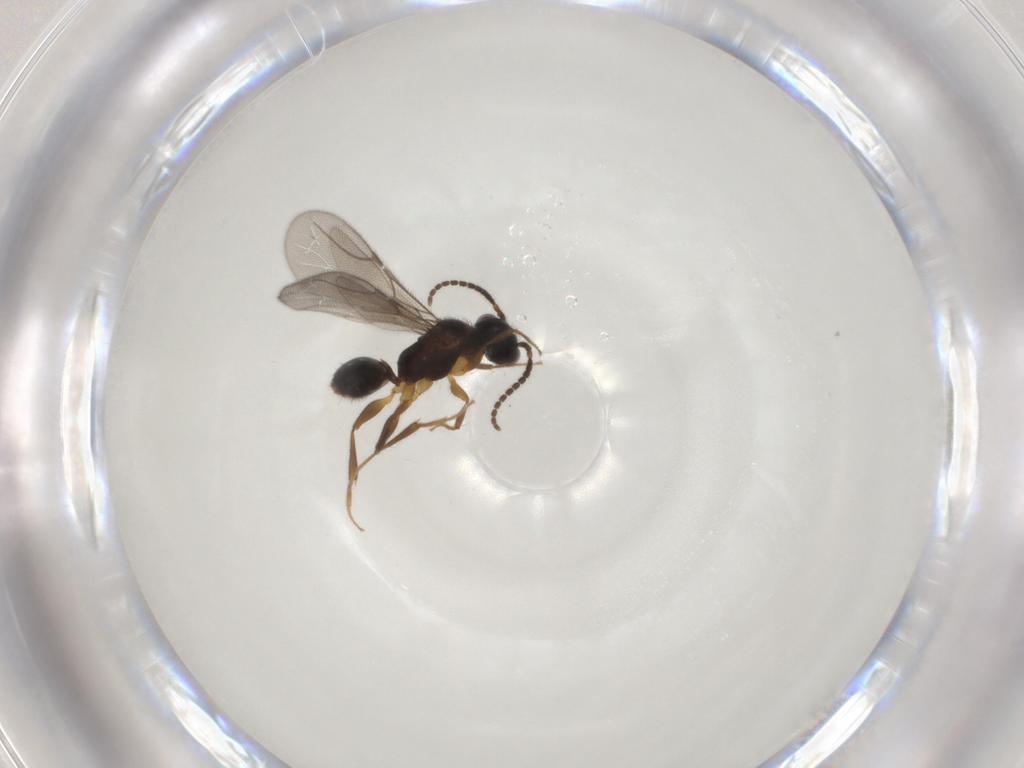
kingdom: Animalia
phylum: Arthropoda
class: Insecta
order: Hymenoptera
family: Bethylidae
